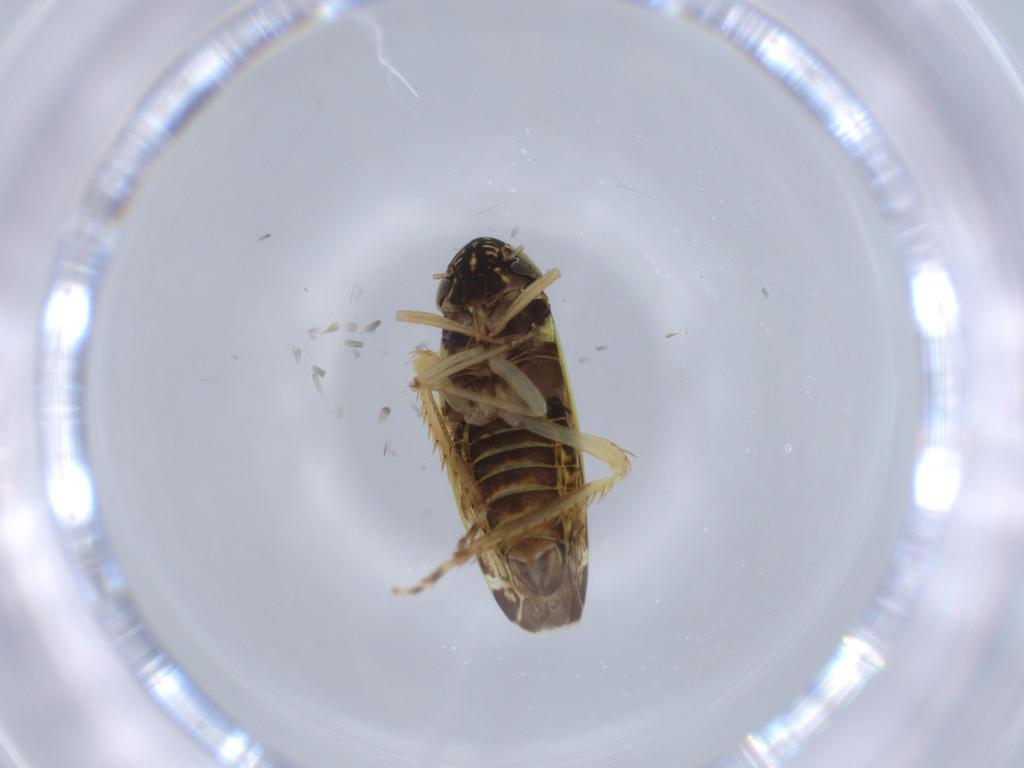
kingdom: Animalia
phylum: Arthropoda
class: Insecta
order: Hemiptera
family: Cicadellidae
